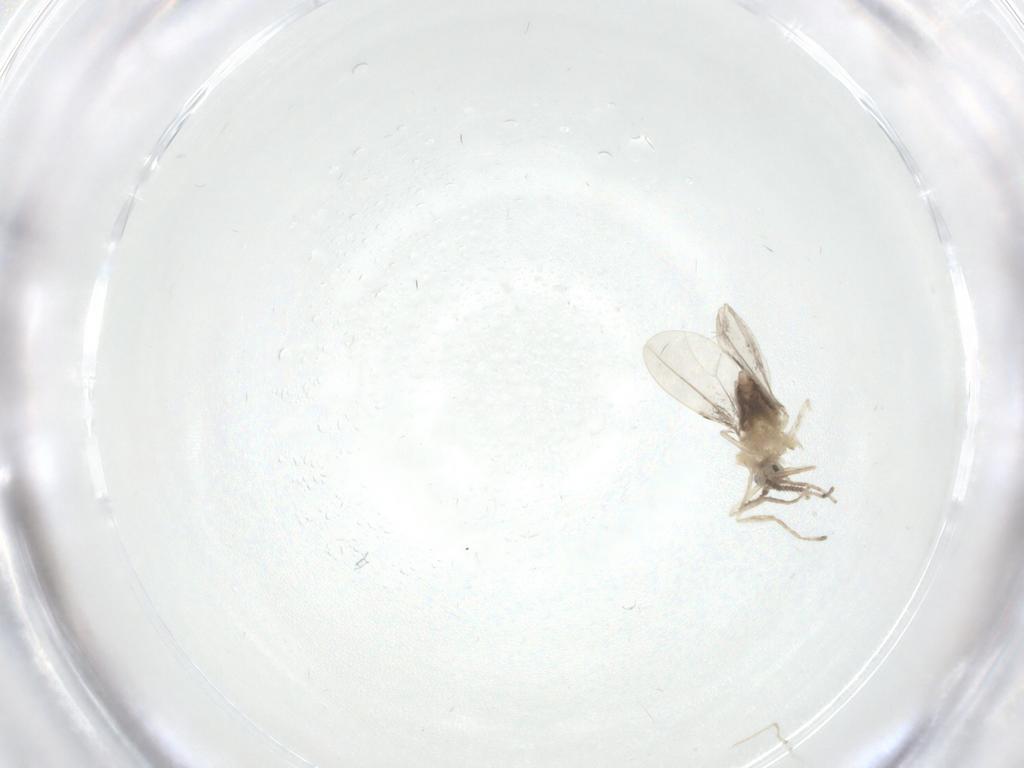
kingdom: Animalia
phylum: Arthropoda
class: Insecta
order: Diptera
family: Cecidomyiidae
